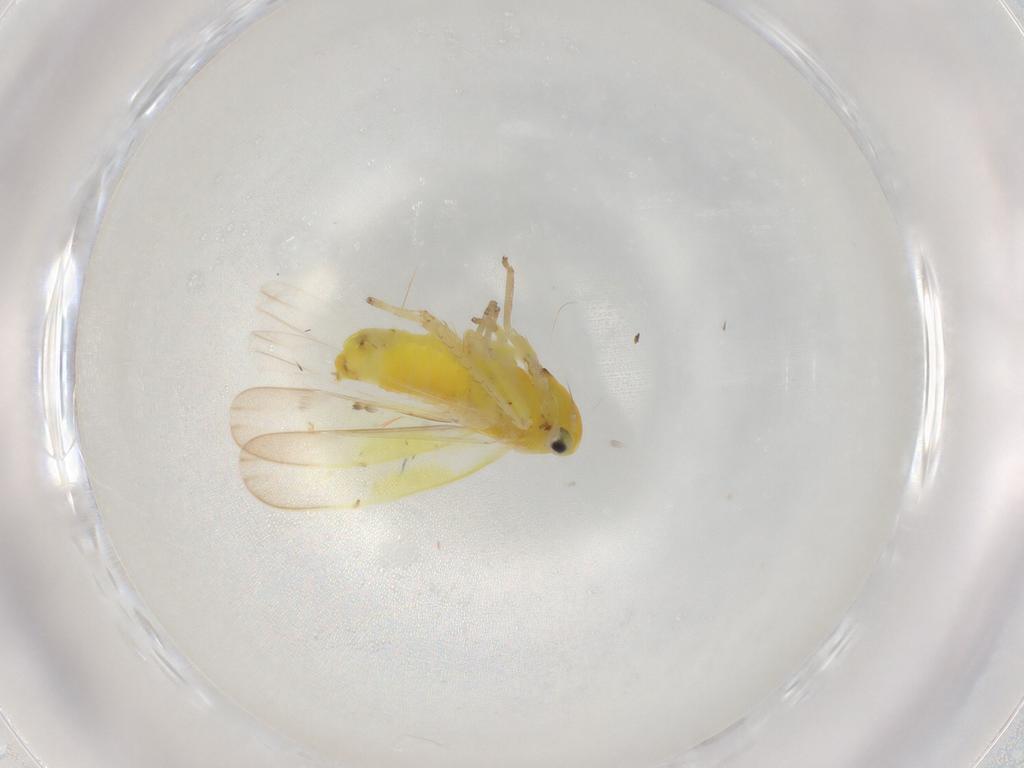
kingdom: Animalia
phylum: Arthropoda
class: Insecta
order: Hemiptera
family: Cicadellidae
